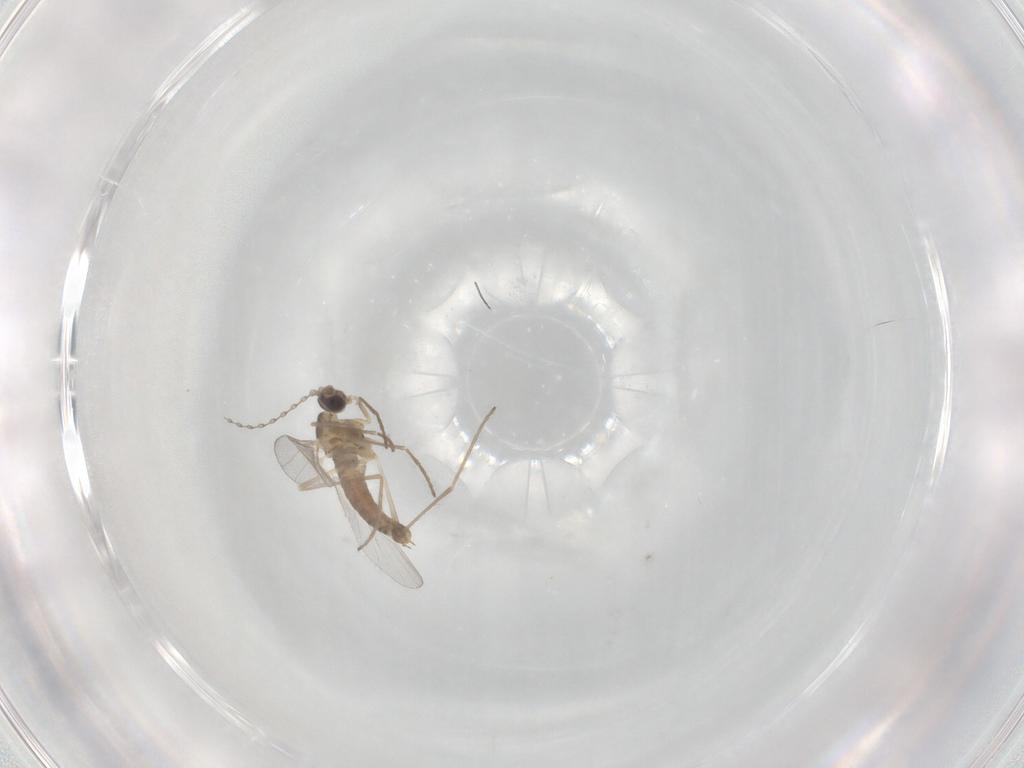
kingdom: Animalia
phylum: Arthropoda
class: Insecta
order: Diptera
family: Cecidomyiidae
